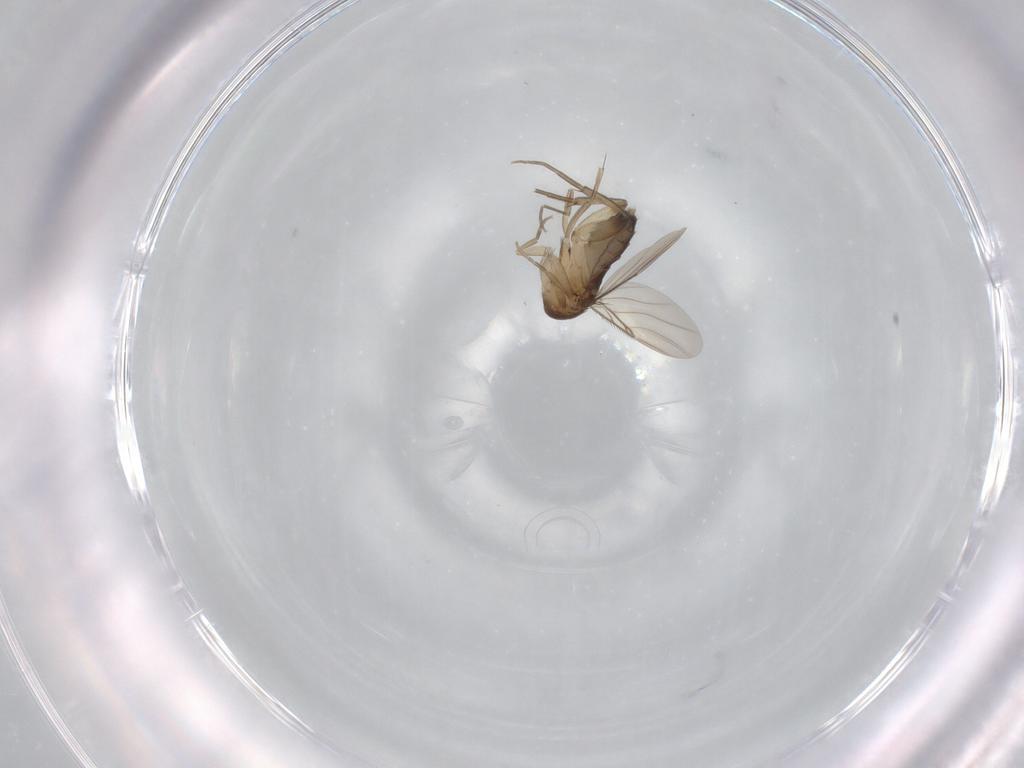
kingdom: Animalia
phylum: Arthropoda
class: Insecta
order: Diptera
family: Phoridae
